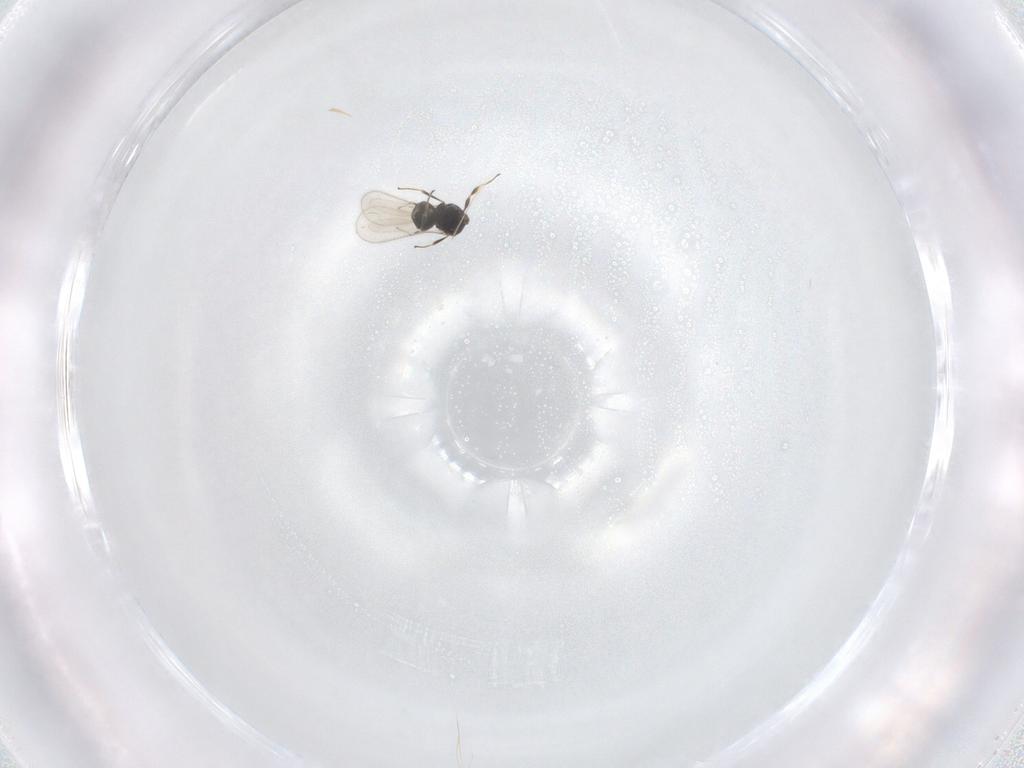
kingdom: Animalia
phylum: Arthropoda
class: Insecta
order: Hymenoptera
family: Scelionidae
